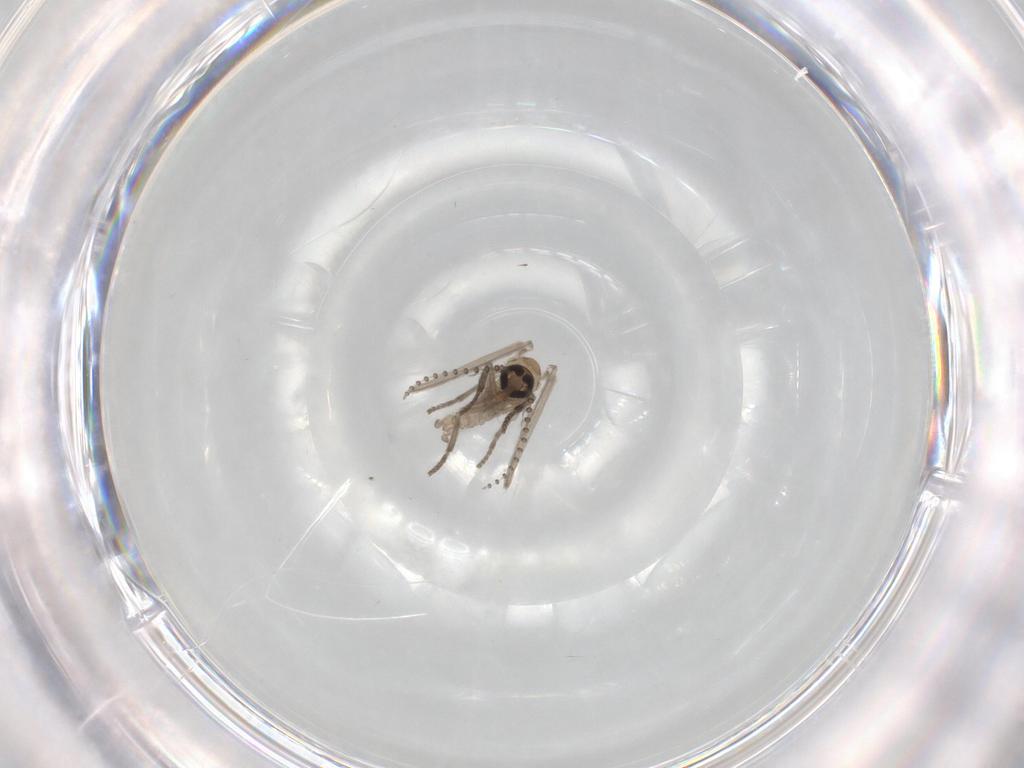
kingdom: Animalia
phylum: Arthropoda
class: Insecta
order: Diptera
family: Psychodidae
